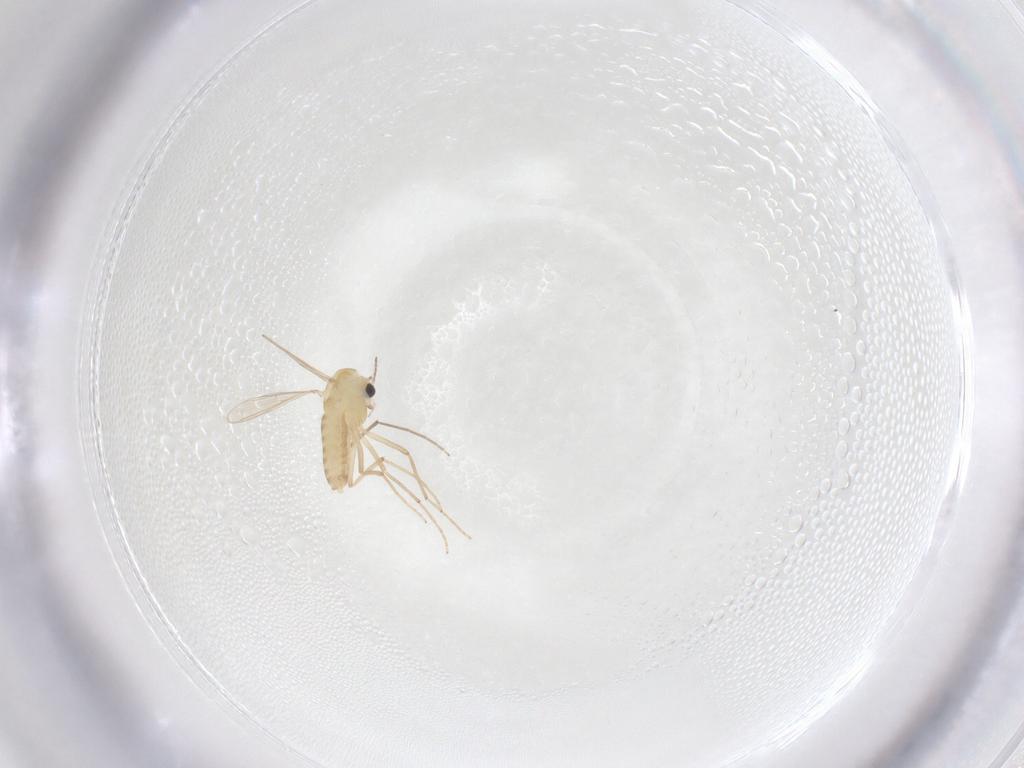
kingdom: Animalia
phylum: Arthropoda
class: Insecta
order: Diptera
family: Chironomidae
